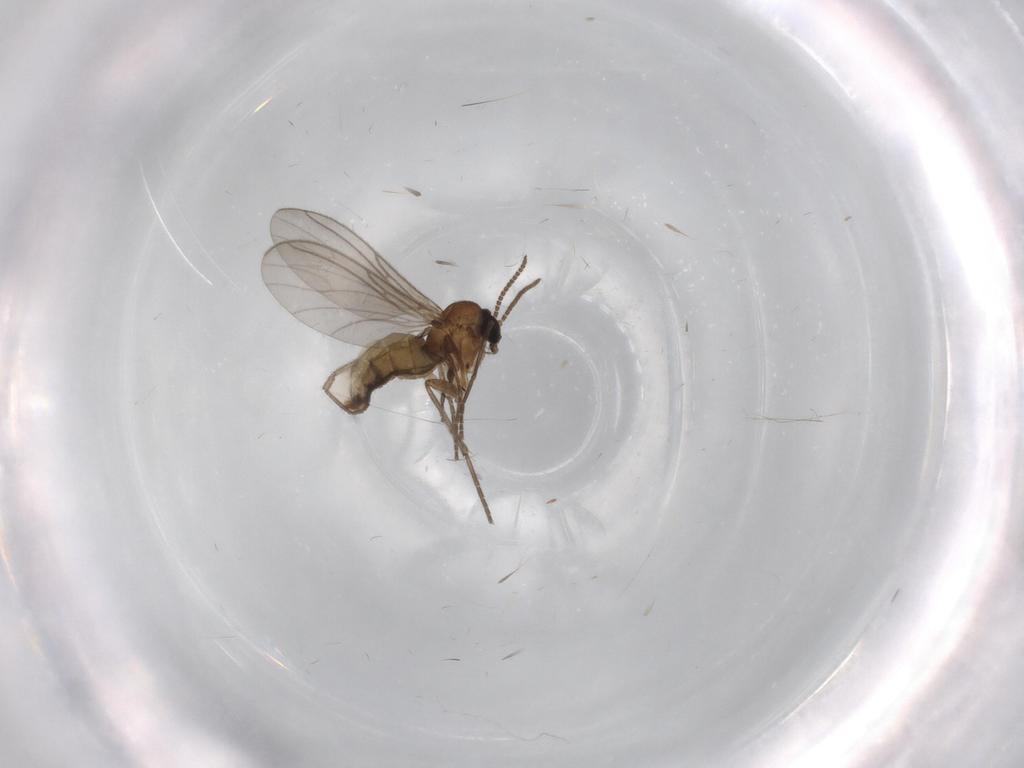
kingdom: Animalia
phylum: Arthropoda
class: Insecta
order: Diptera
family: Sciaridae
